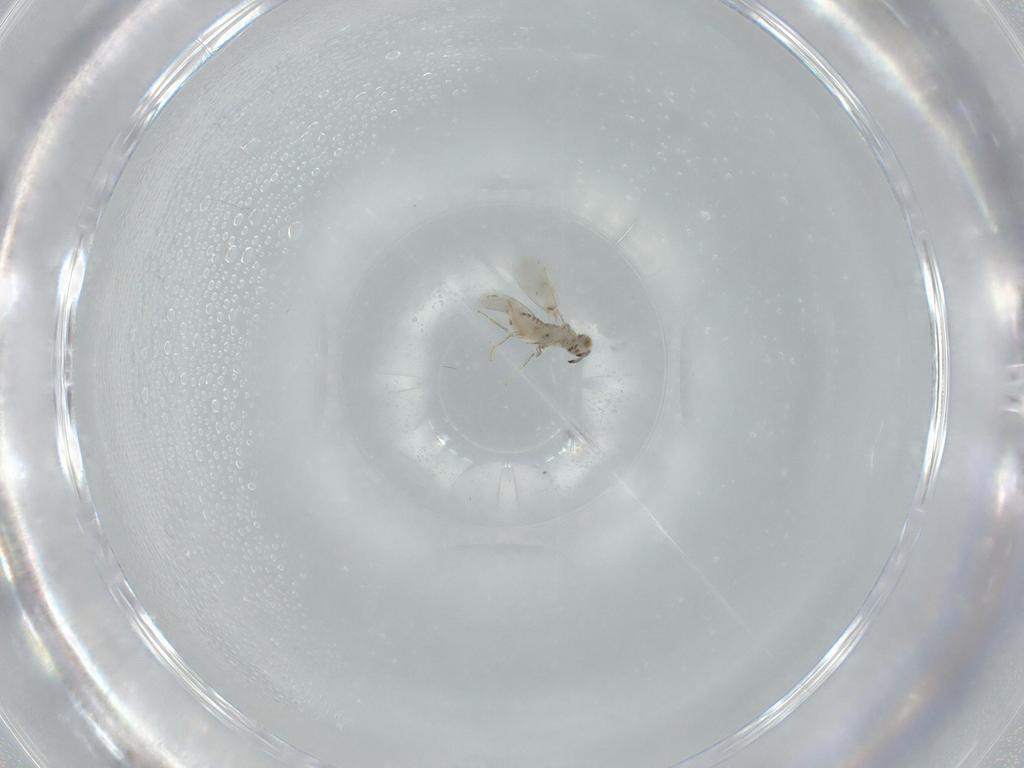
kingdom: Animalia
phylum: Arthropoda
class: Insecta
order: Hymenoptera
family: Aphelinidae
